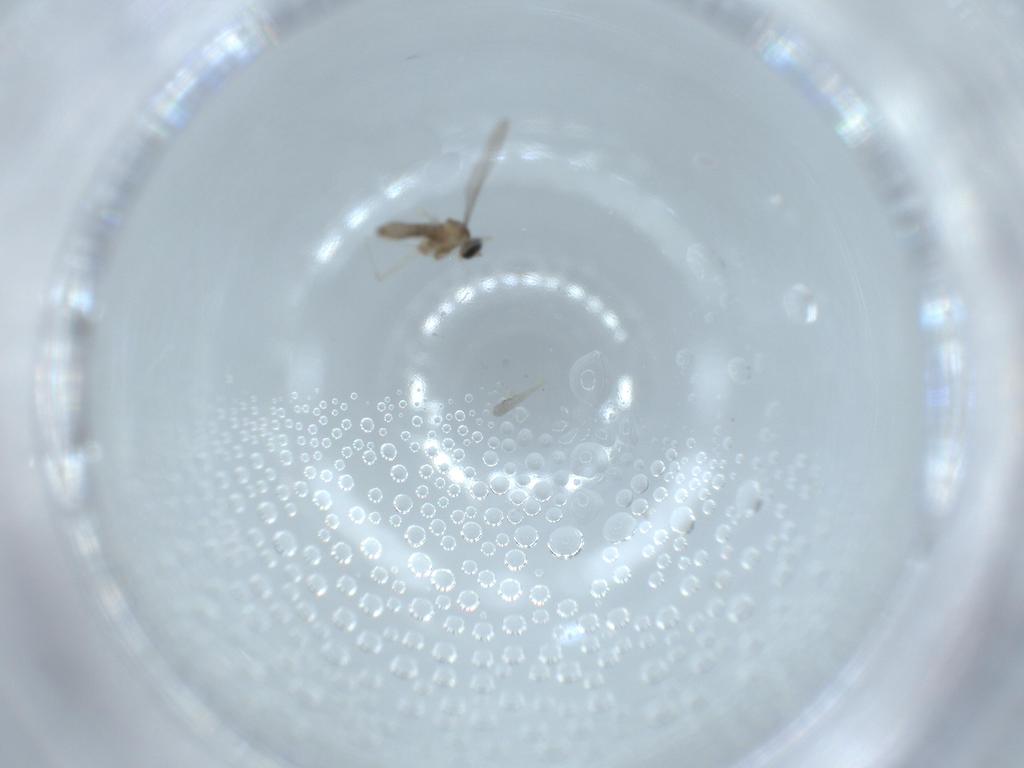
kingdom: Animalia
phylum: Arthropoda
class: Insecta
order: Diptera
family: Cecidomyiidae
